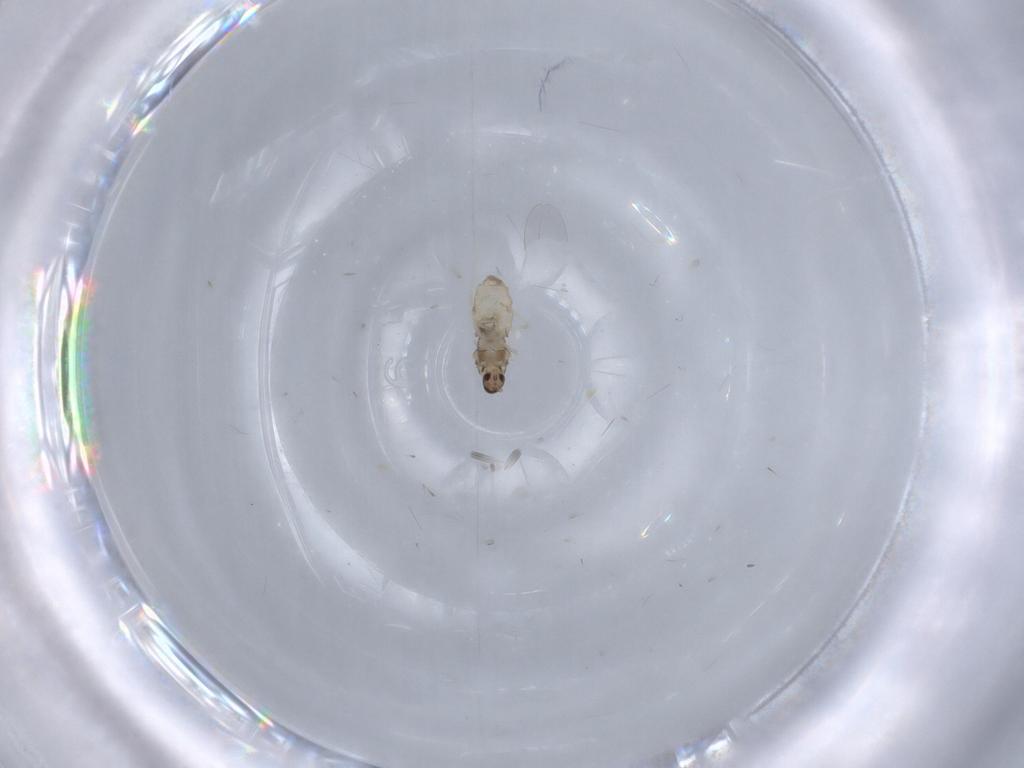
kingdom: Animalia
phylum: Arthropoda
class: Insecta
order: Diptera
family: Cecidomyiidae
